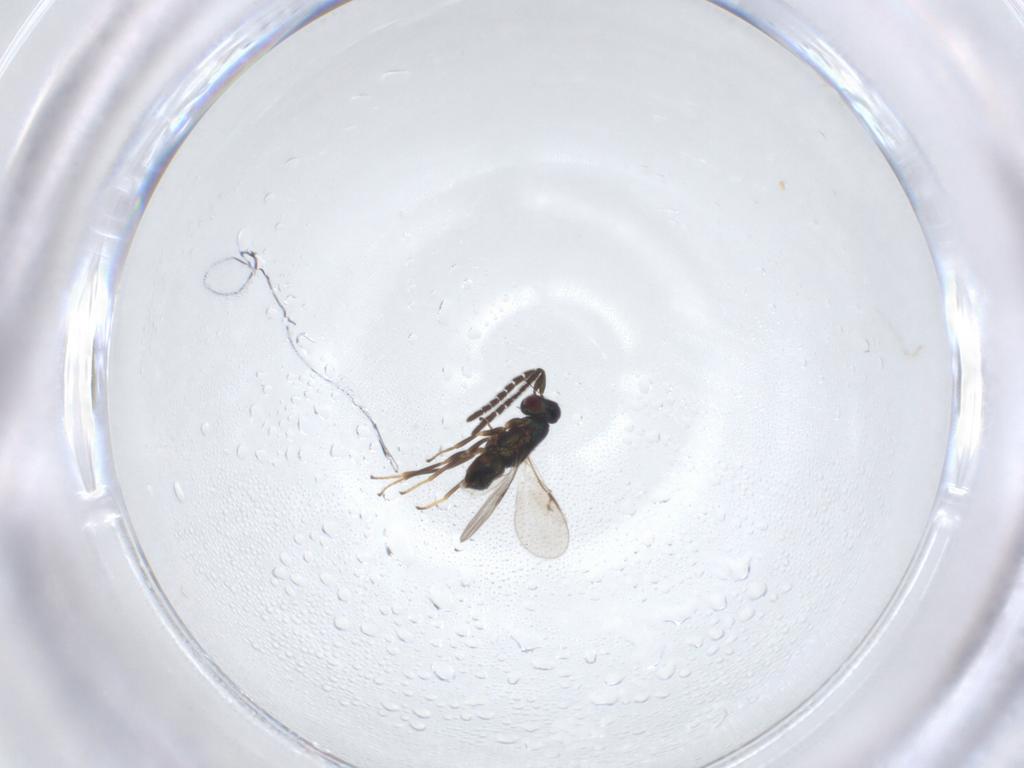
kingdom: Animalia
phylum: Arthropoda
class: Insecta
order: Hymenoptera
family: Encyrtidae
